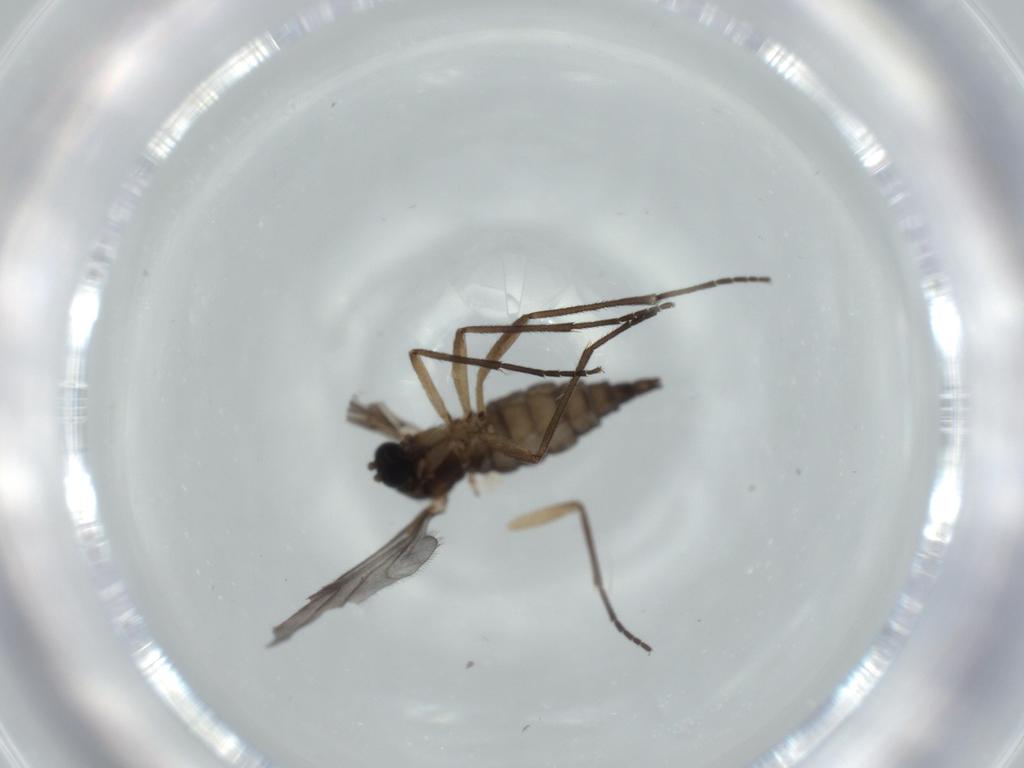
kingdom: Animalia
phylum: Arthropoda
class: Insecta
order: Diptera
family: Sciaridae
